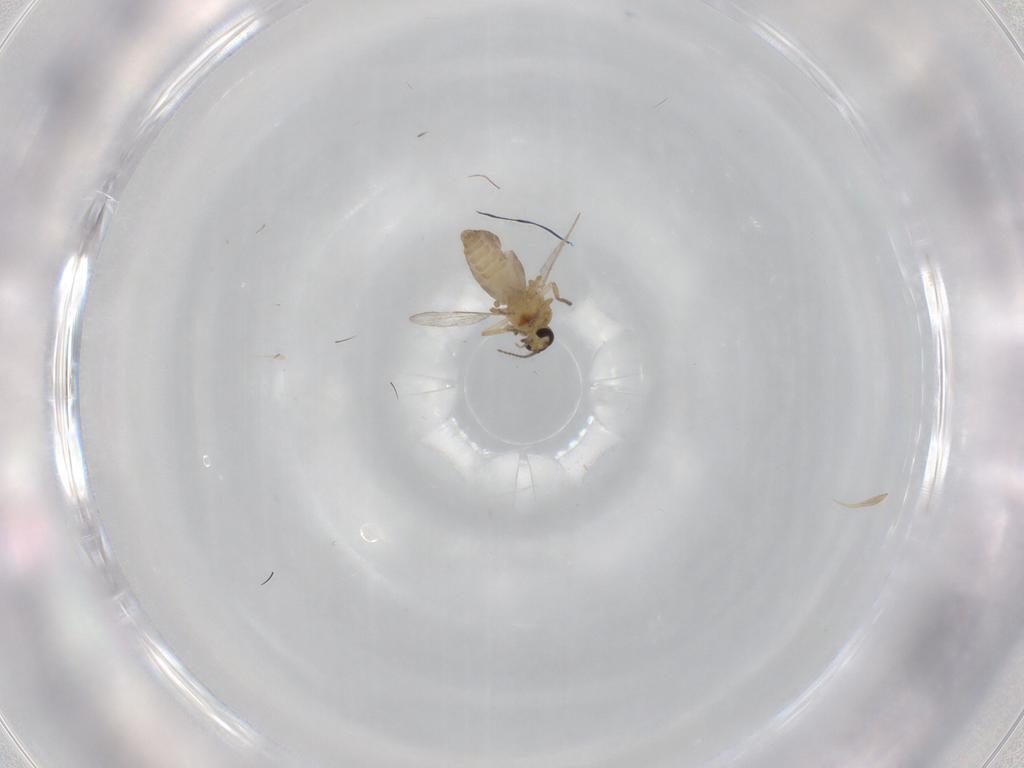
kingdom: Animalia
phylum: Arthropoda
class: Insecta
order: Diptera
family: Ceratopogonidae
